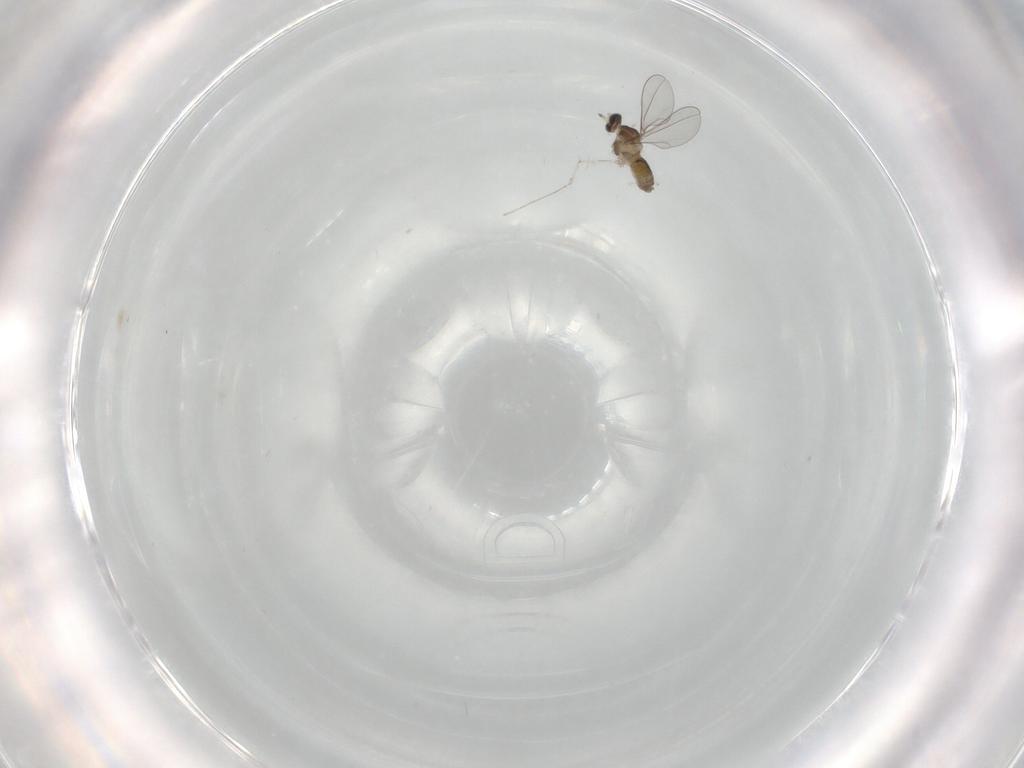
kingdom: Animalia
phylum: Arthropoda
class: Insecta
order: Diptera
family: Cecidomyiidae
